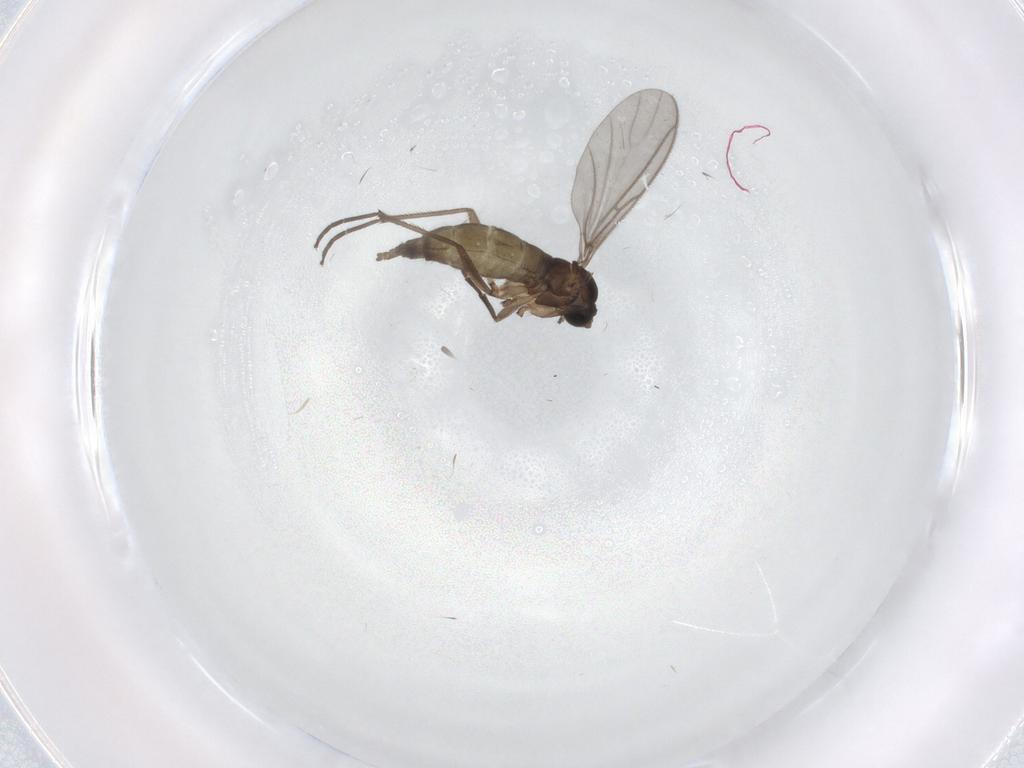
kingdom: Animalia
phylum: Arthropoda
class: Insecta
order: Diptera
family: Sciaridae
